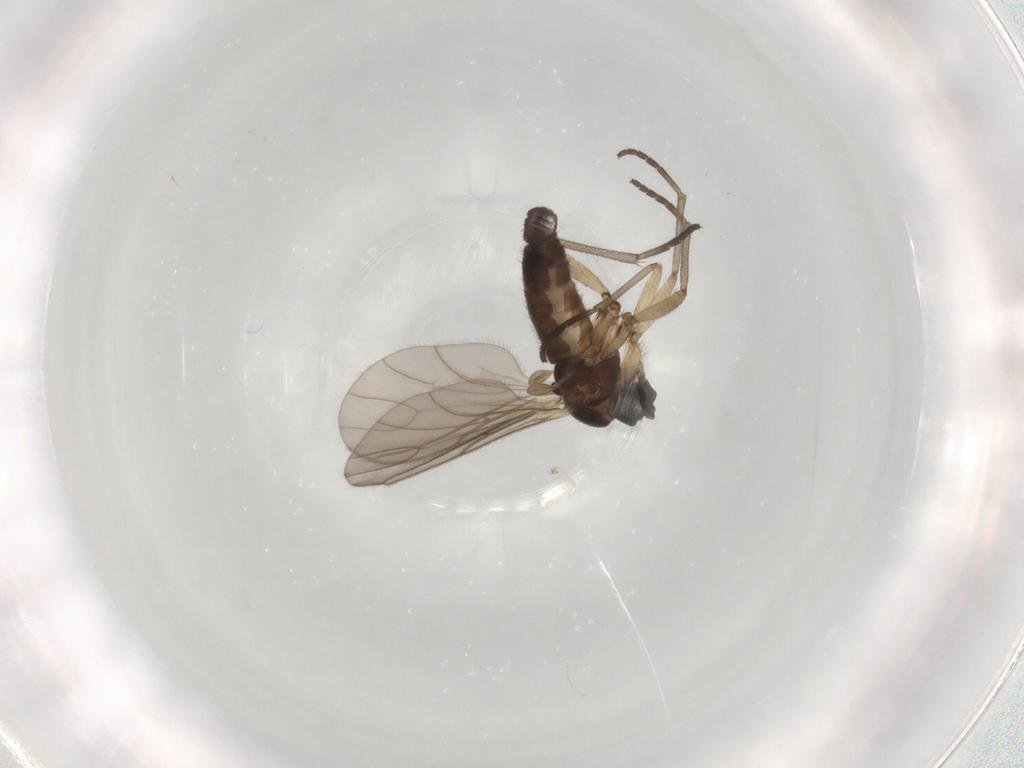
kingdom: Animalia
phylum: Arthropoda
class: Insecta
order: Diptera
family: Sciaridae
